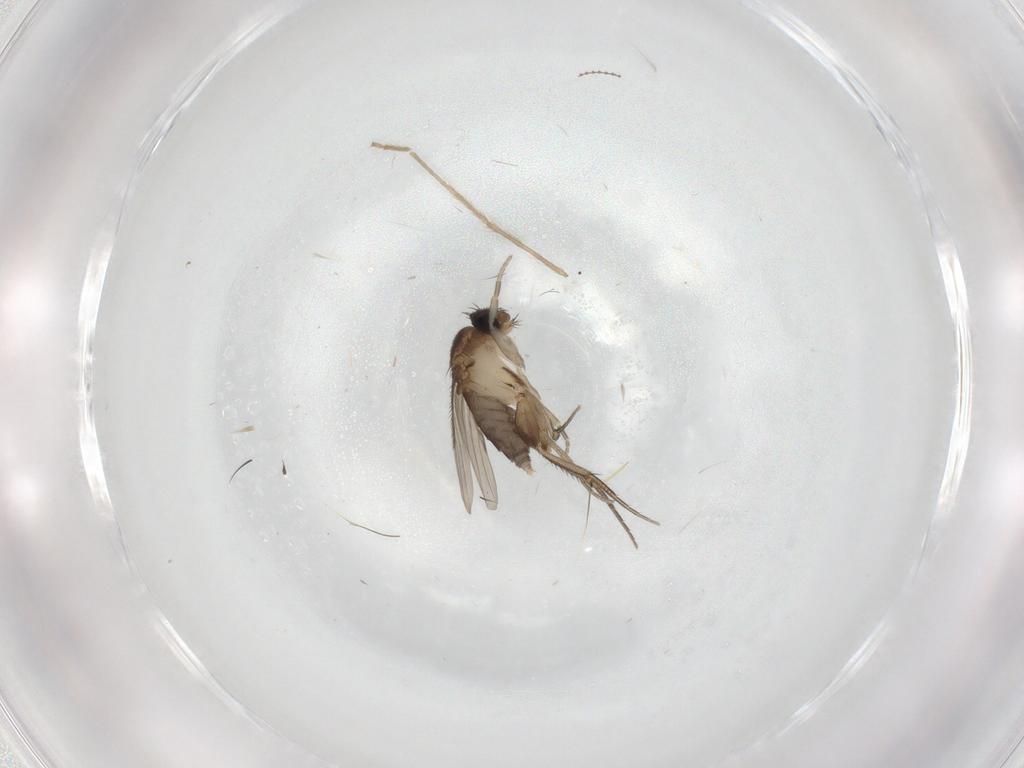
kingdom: Animalia
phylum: Arthropoda
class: Insecta
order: Diptera
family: Phoridae
